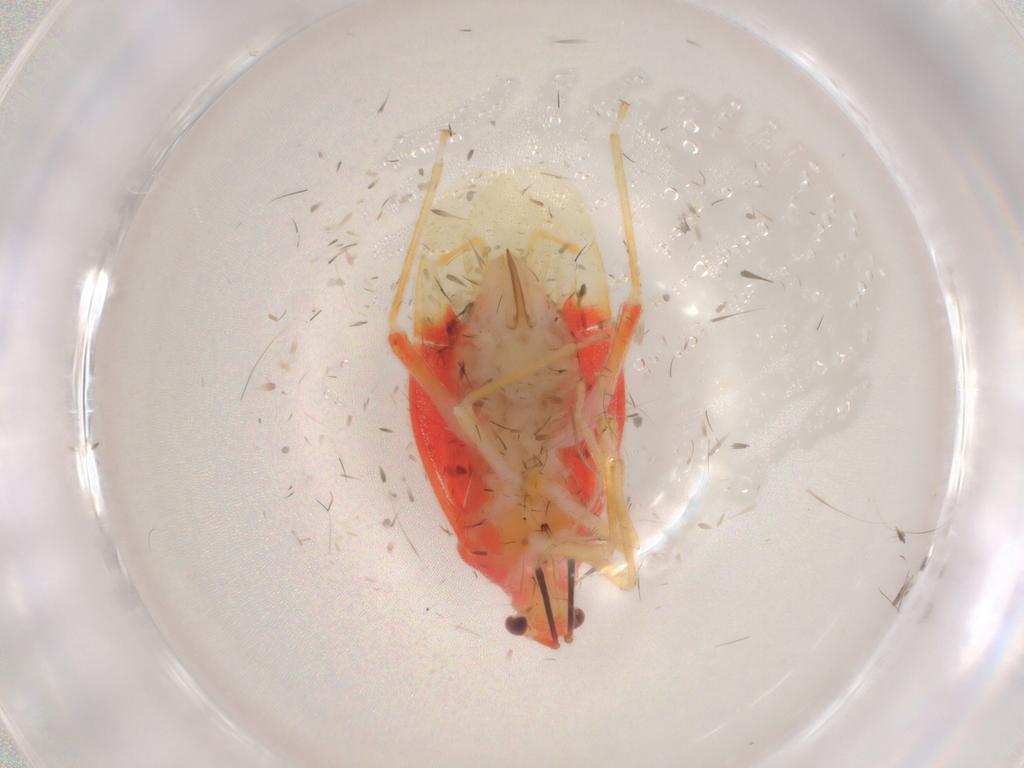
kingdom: Animalia
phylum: Arthropoda
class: Insecta
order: Hemiptera
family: Miridae
